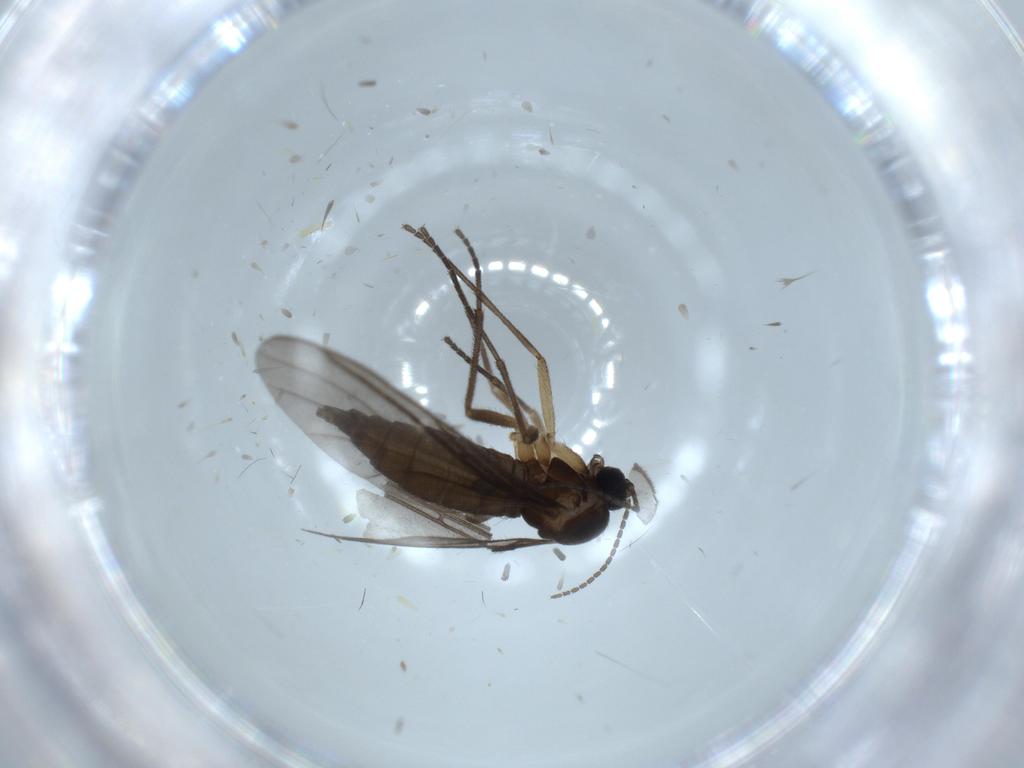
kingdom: Animalia
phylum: Arthropoda
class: Insecta
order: Diptera
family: Sciaridae
